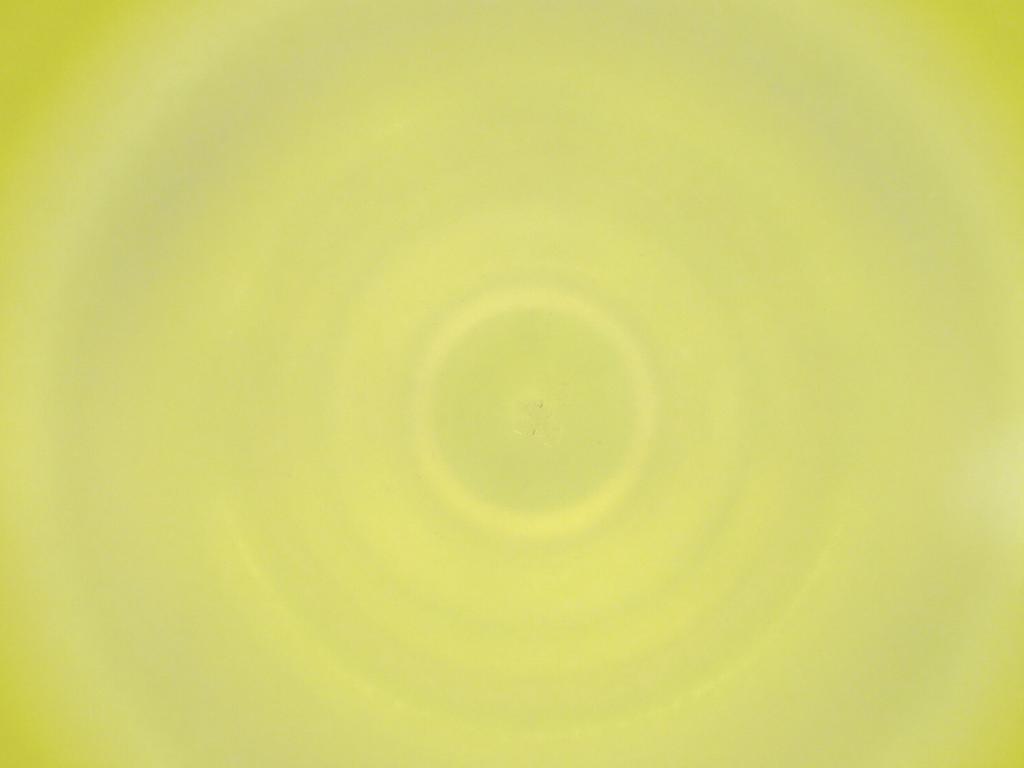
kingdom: Animalia
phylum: Arthropoda
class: Insecta
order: Diptera
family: Cecidomyiidae
